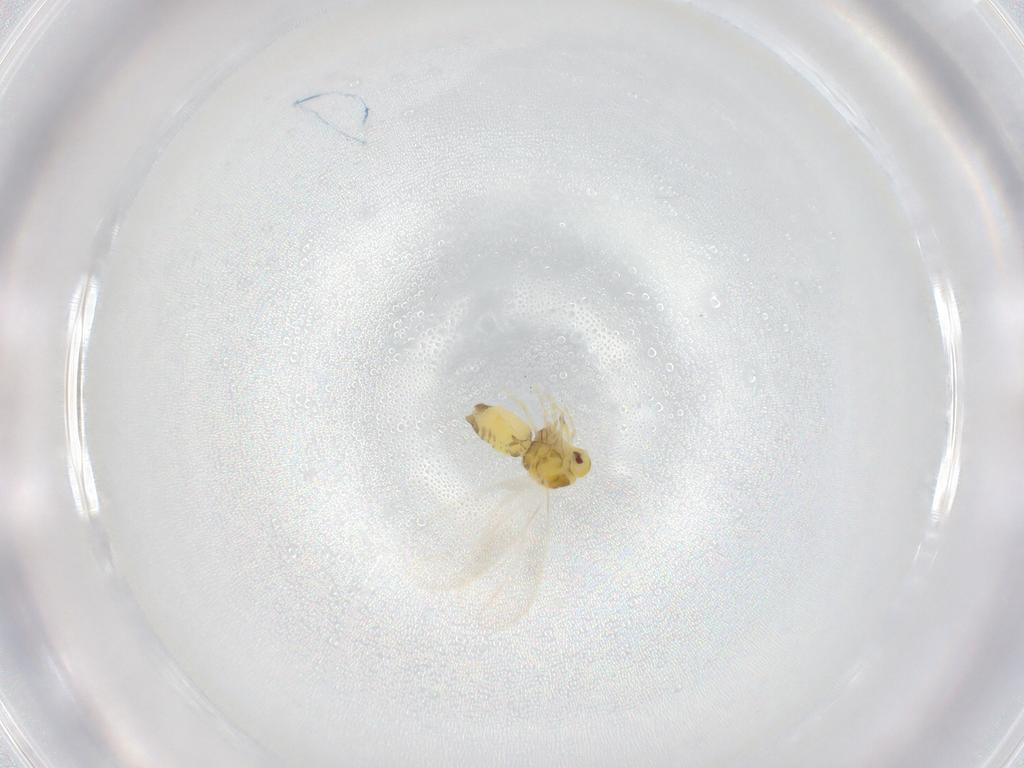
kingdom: Animalia
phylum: Arthropoda
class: Insecta
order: Hemiptera
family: Aleyrodidae
